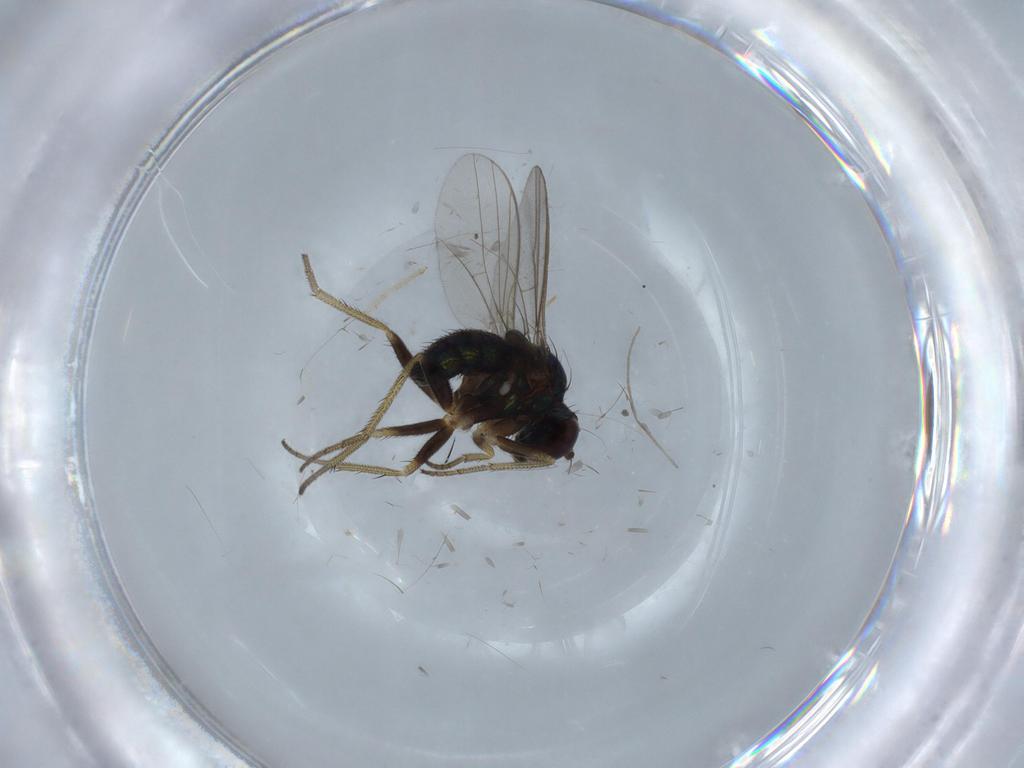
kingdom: Animalia
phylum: Arthropoda
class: Insecta
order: Diptera
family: Chironomidae
